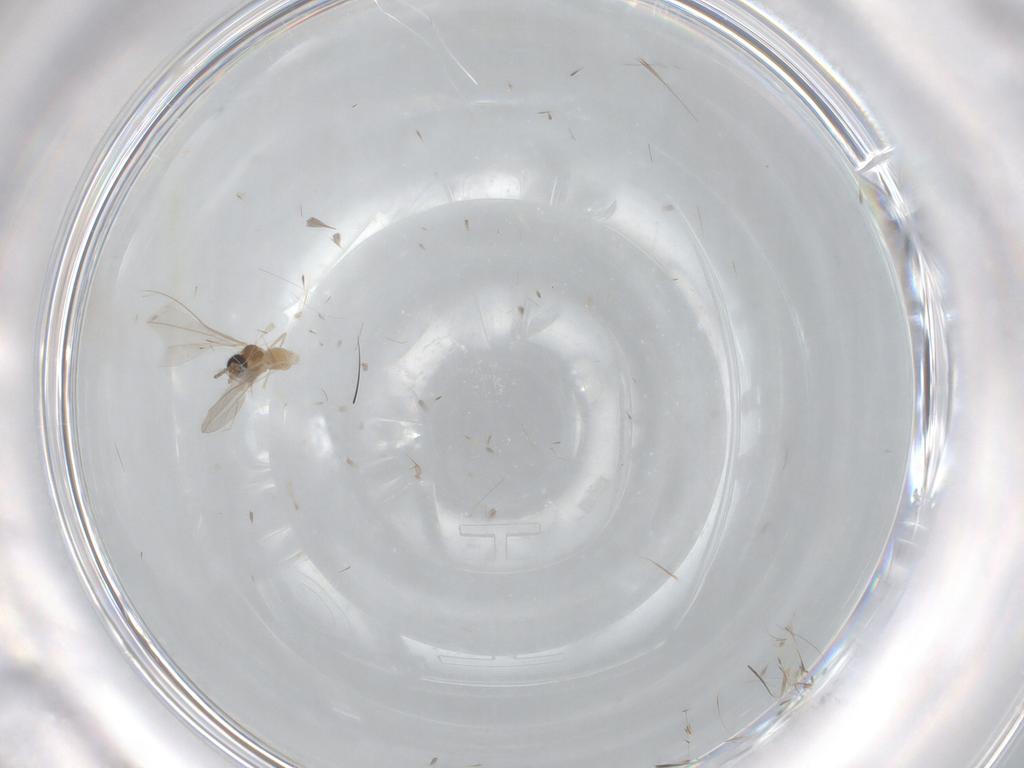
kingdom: Animalia
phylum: Arthropoda
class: Insecta
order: Diptera
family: Cecidomyiidae
